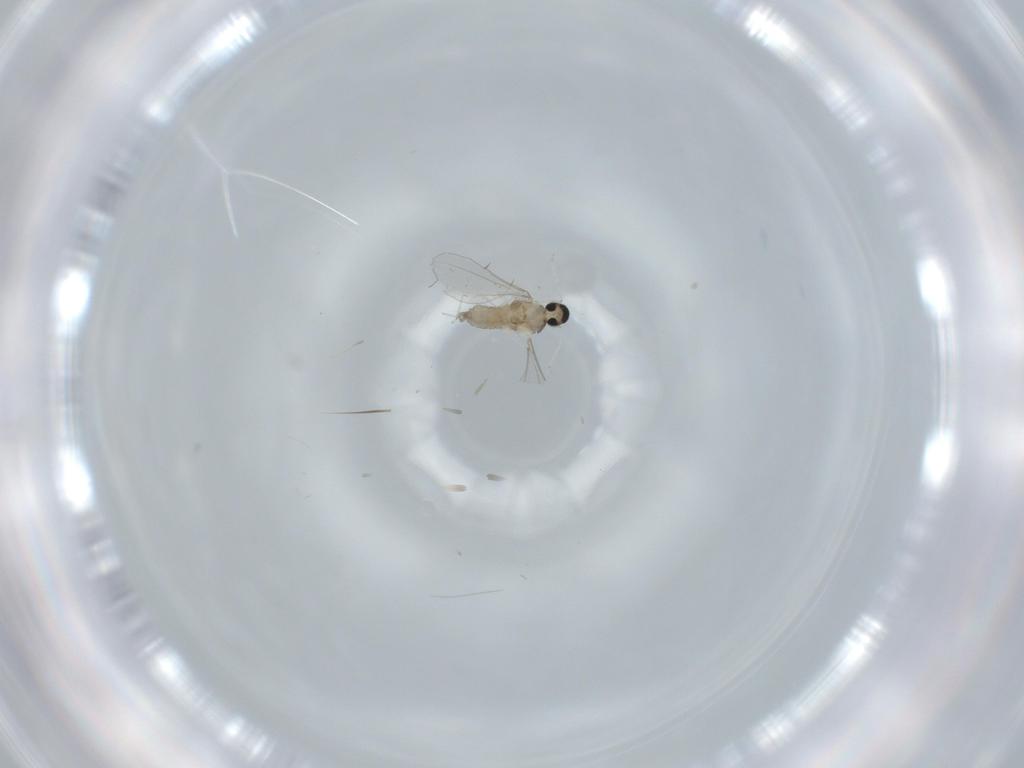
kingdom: Animalia
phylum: Arthropoda
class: Insecta
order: Diptera
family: Cecidomyiidae
